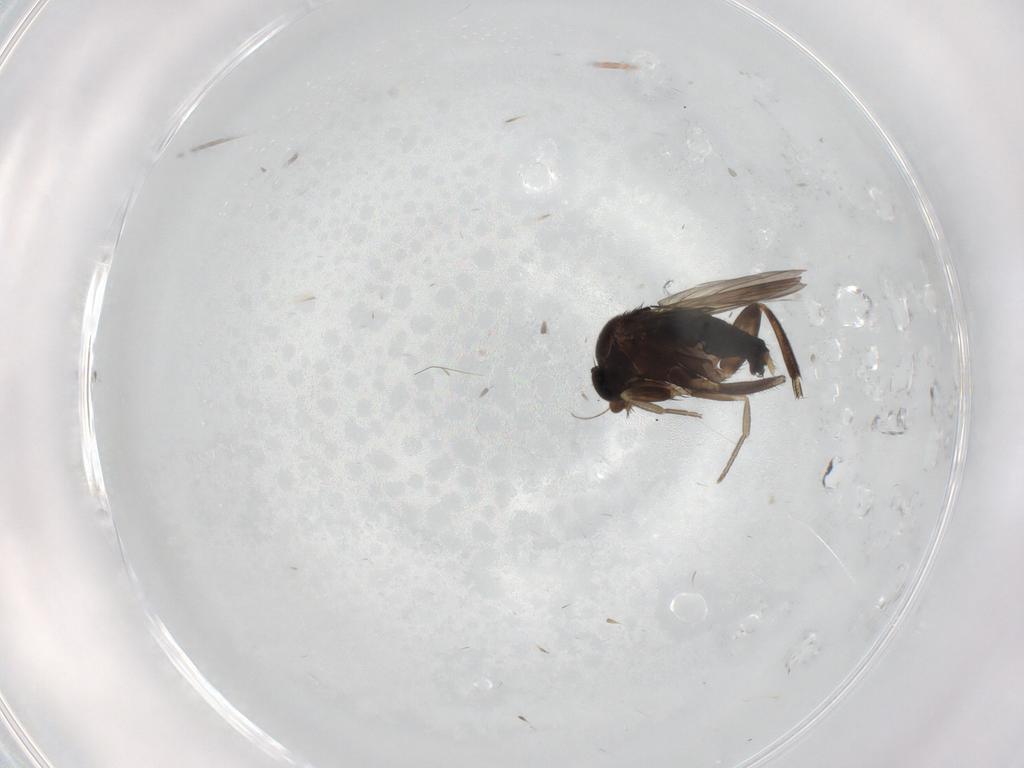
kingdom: Animalia
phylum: Arthropoda
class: Insecta
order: Diptera
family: Phoridae
